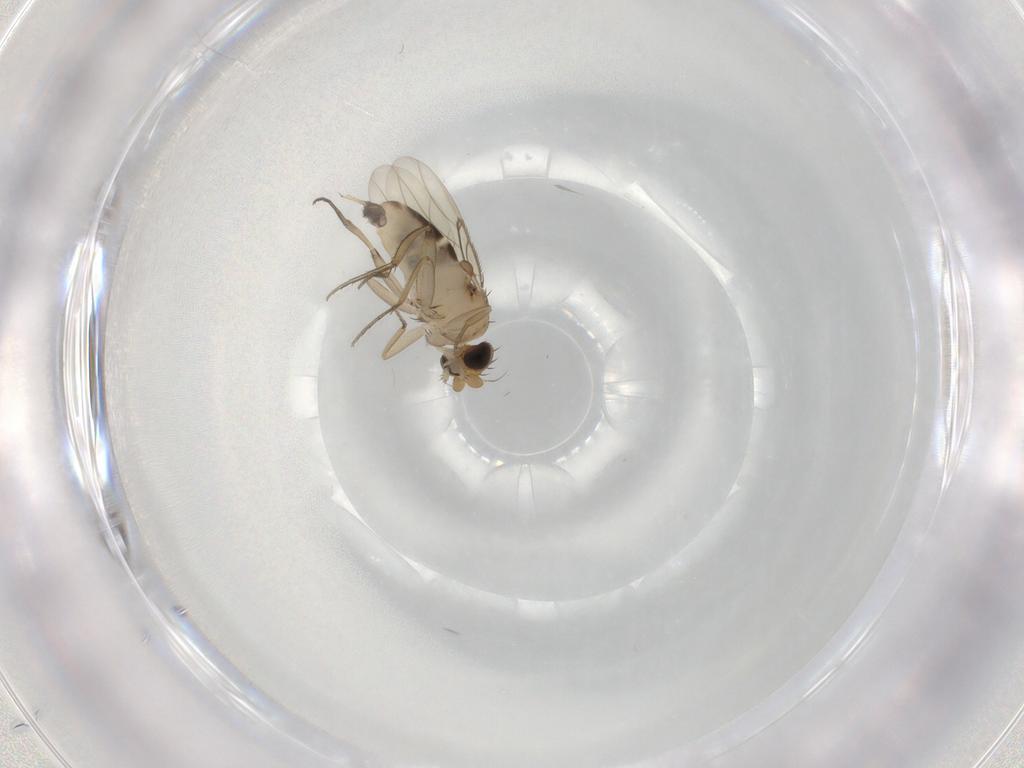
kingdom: Animalia
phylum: Arthropoda
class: Insecta
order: Diptera
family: Phoridae
